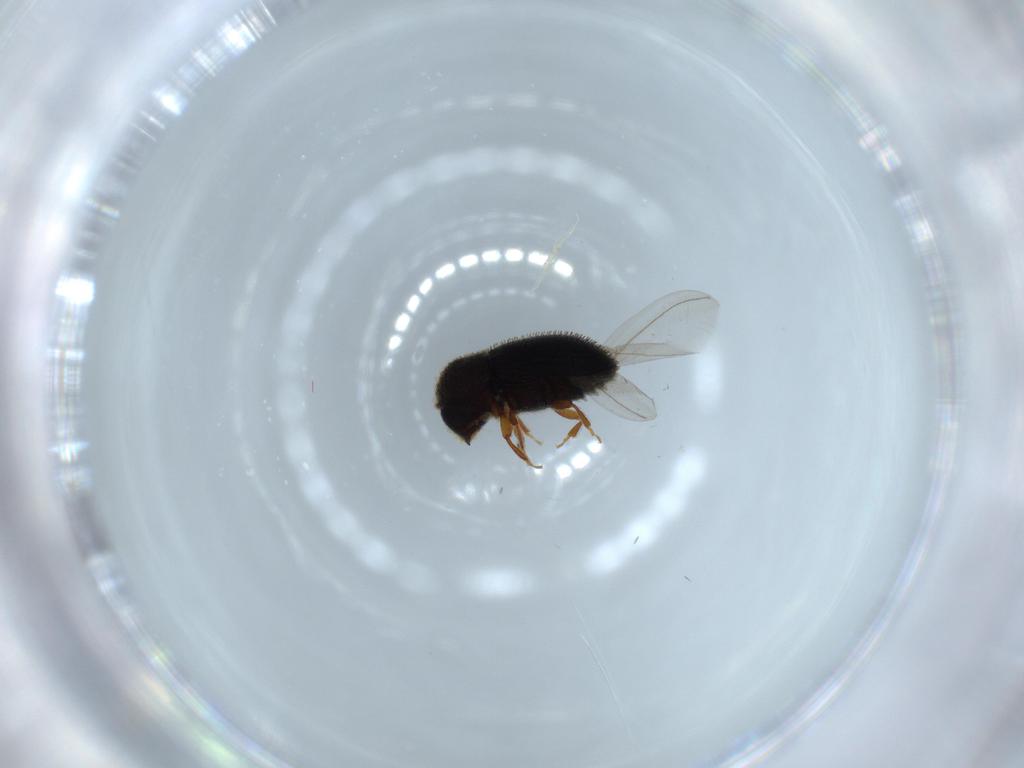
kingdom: Animalia
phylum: Arthropoda
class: Insecta
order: Coleoptera
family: Curculionidae
